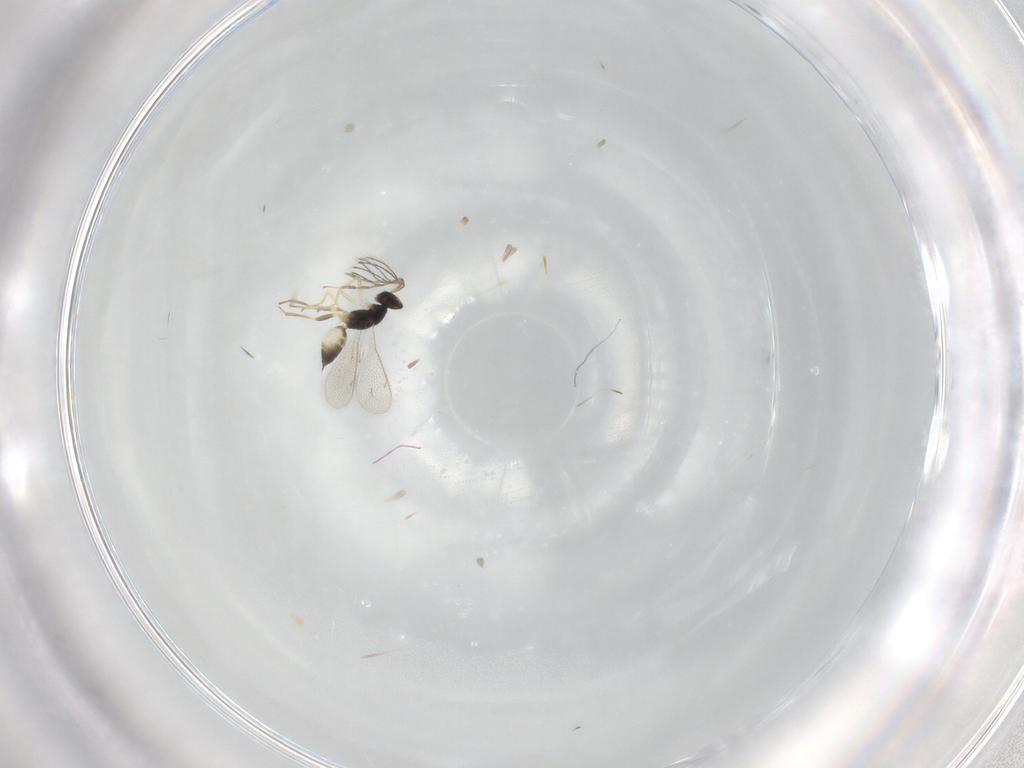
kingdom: Animalia
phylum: Arthropoda
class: Insecta
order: Hymenoptera
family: Eulophidae
